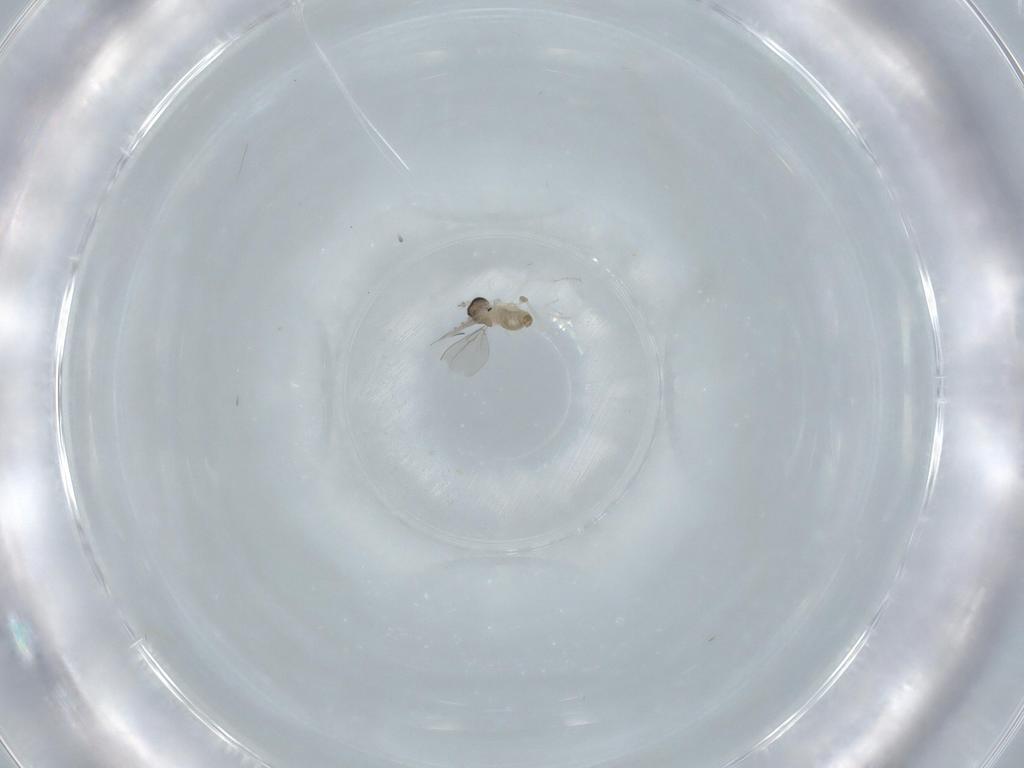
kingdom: Animalia
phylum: Arthropoda
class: Insecta
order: Diptera
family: Cecidomyiidae
